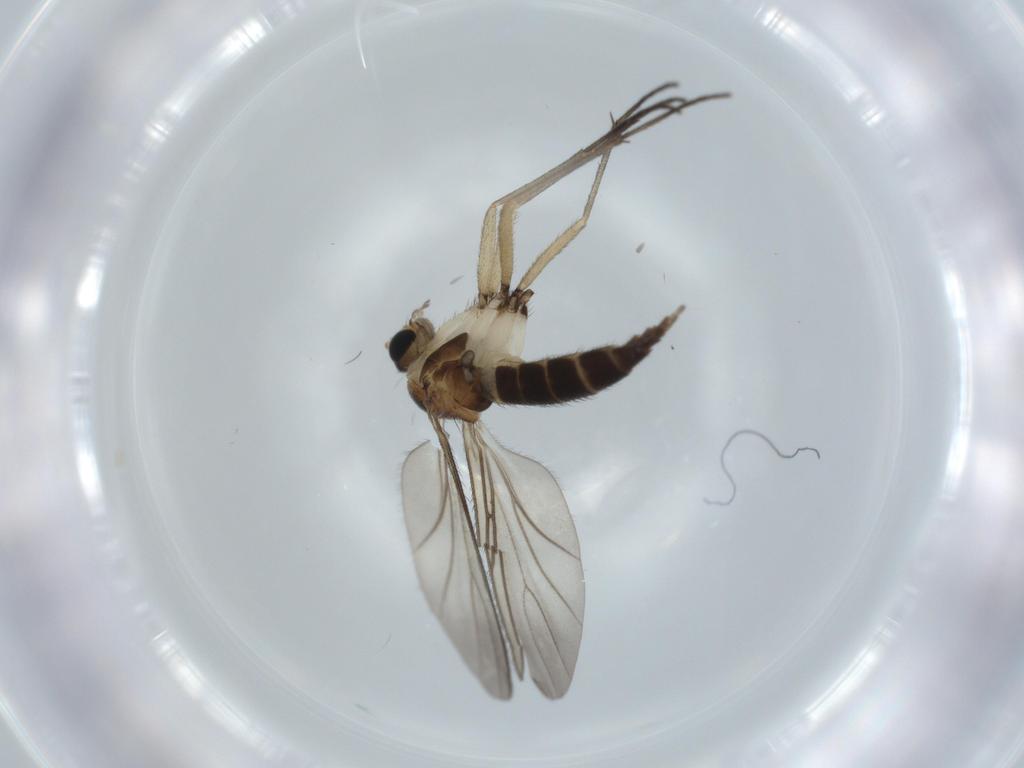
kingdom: Animalia
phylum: Arthropoda
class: Insecta
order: Diptera
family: Sciaridae
